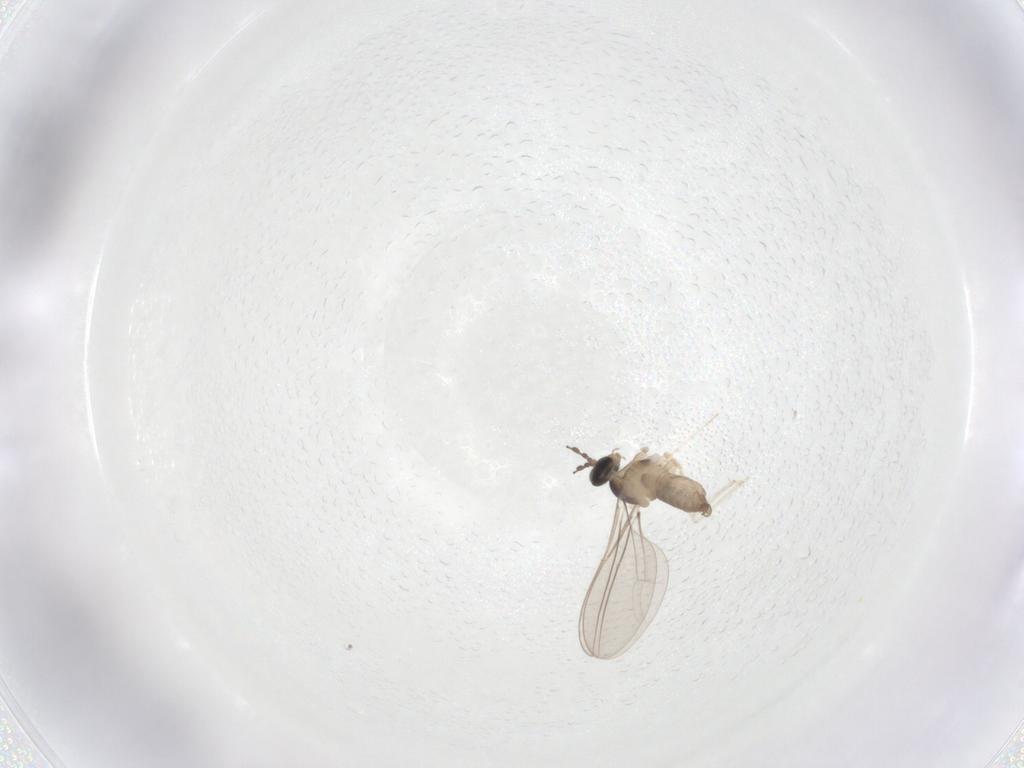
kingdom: Animalia
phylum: Arthropoda
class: Insecta
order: Diptera
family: Cecidomyiidae
